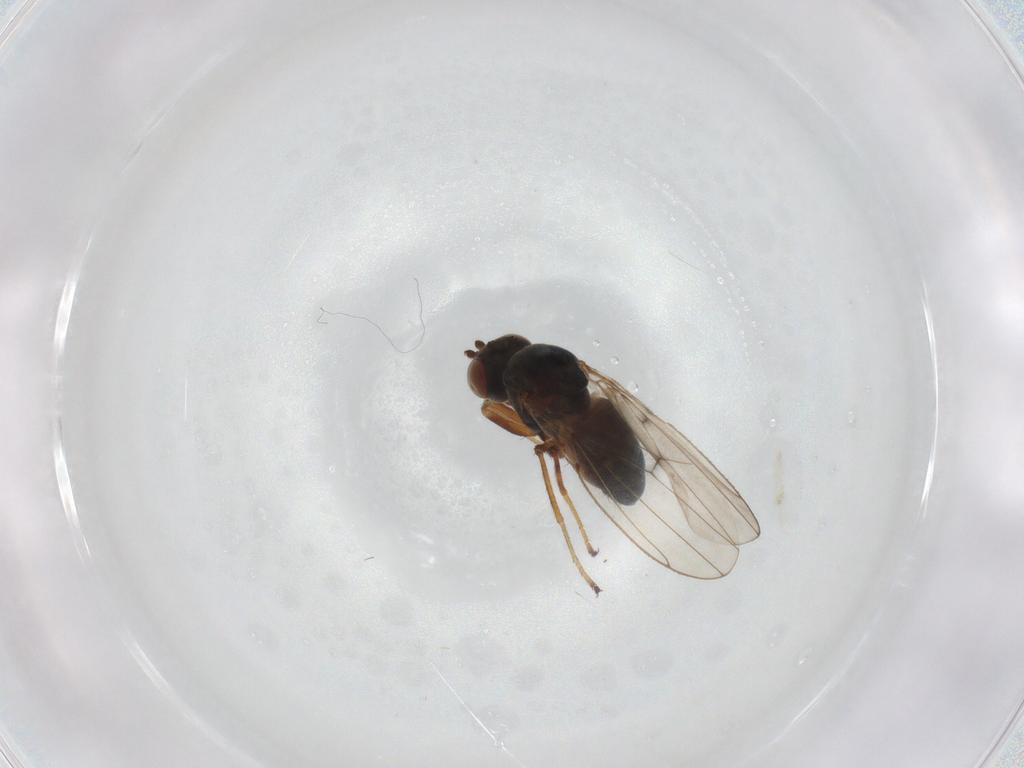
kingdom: Animalia
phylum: Arthropoda
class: Insecta
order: Diptera
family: Ephydridae
